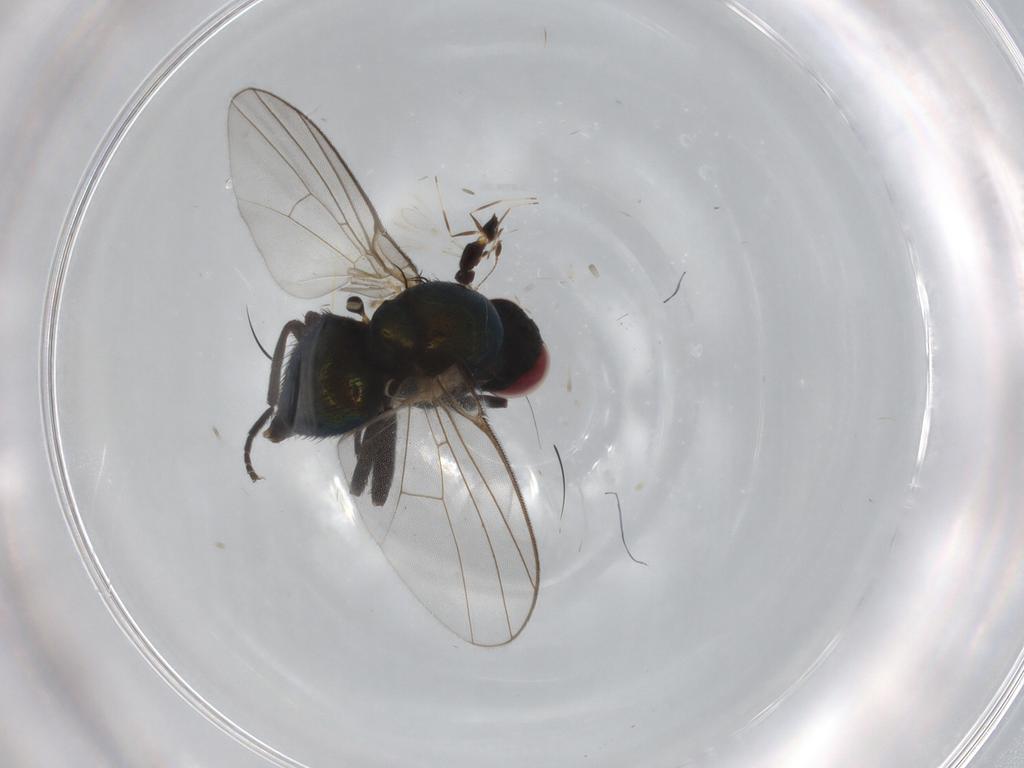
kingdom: Animalia
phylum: Arthropoda
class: Insecta
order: Diptera
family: Agromyzidae
